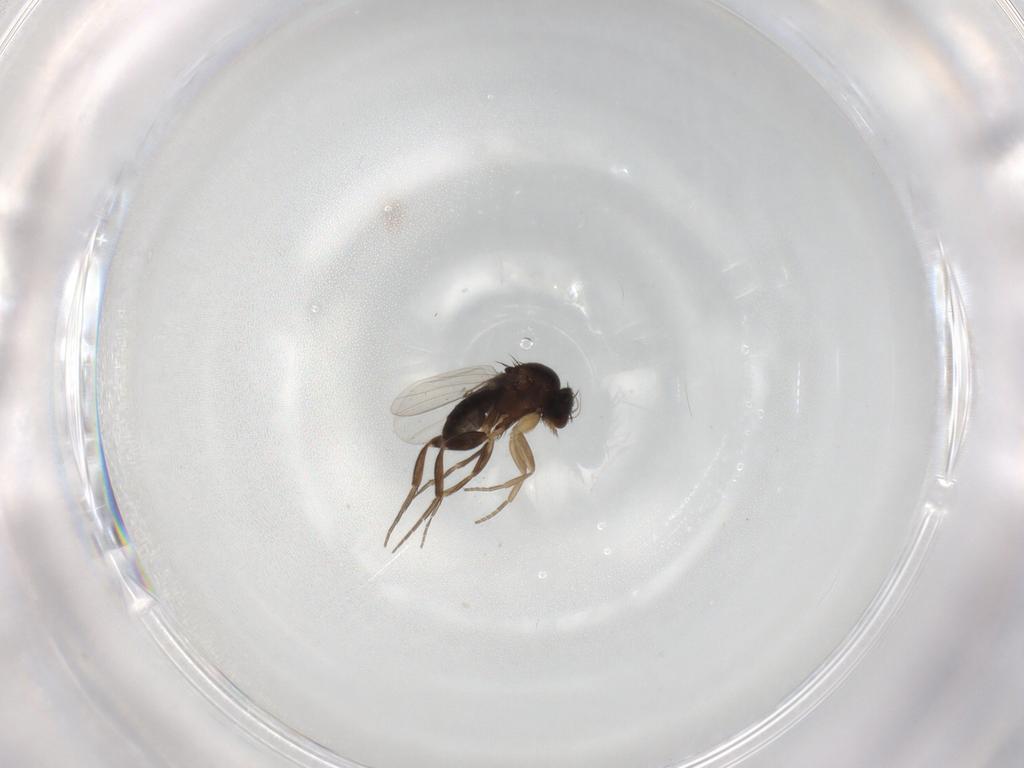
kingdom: Animalia
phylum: Arthropoda
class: Insecta
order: Diptera
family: Phoridae
